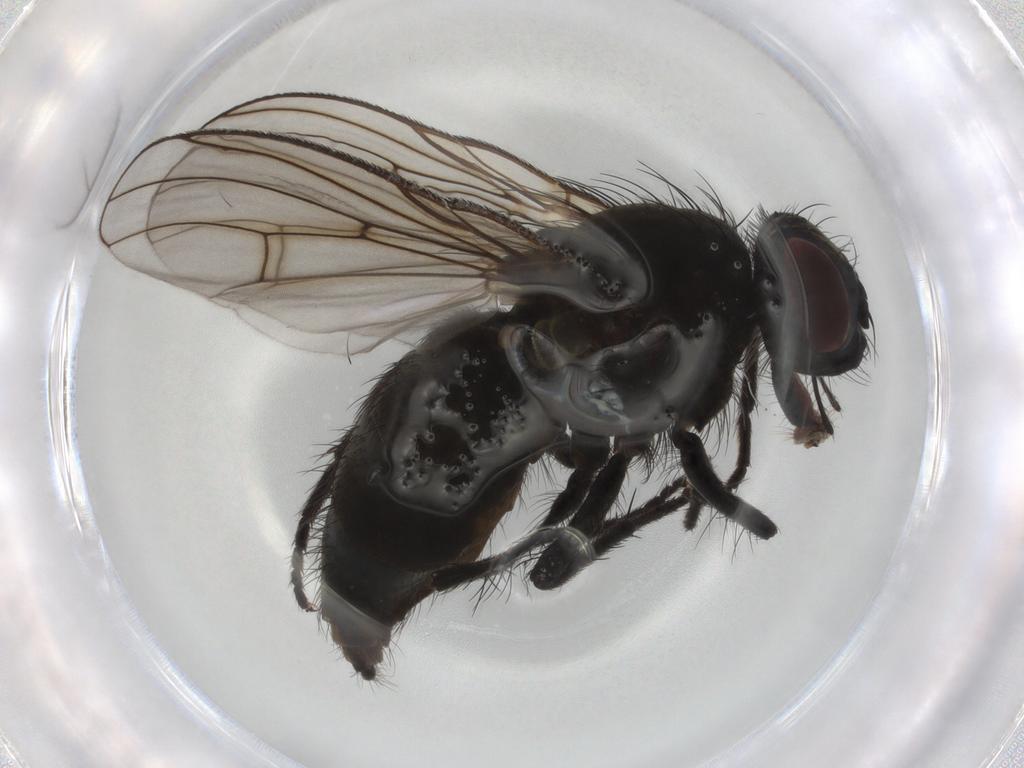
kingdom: Animalia
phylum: Arthropoda
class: Insecta
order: Diptera
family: Muscidae
